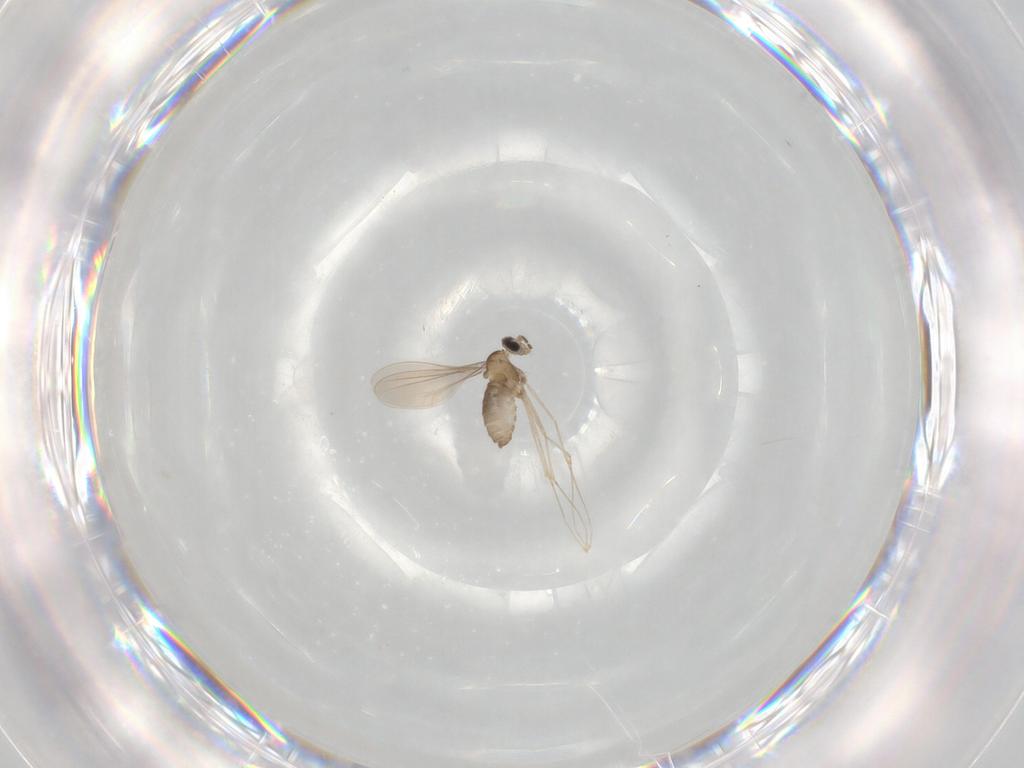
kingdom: Animalia
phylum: Arthropoda
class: Insecta
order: Diptera
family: Cecidomyiidae
